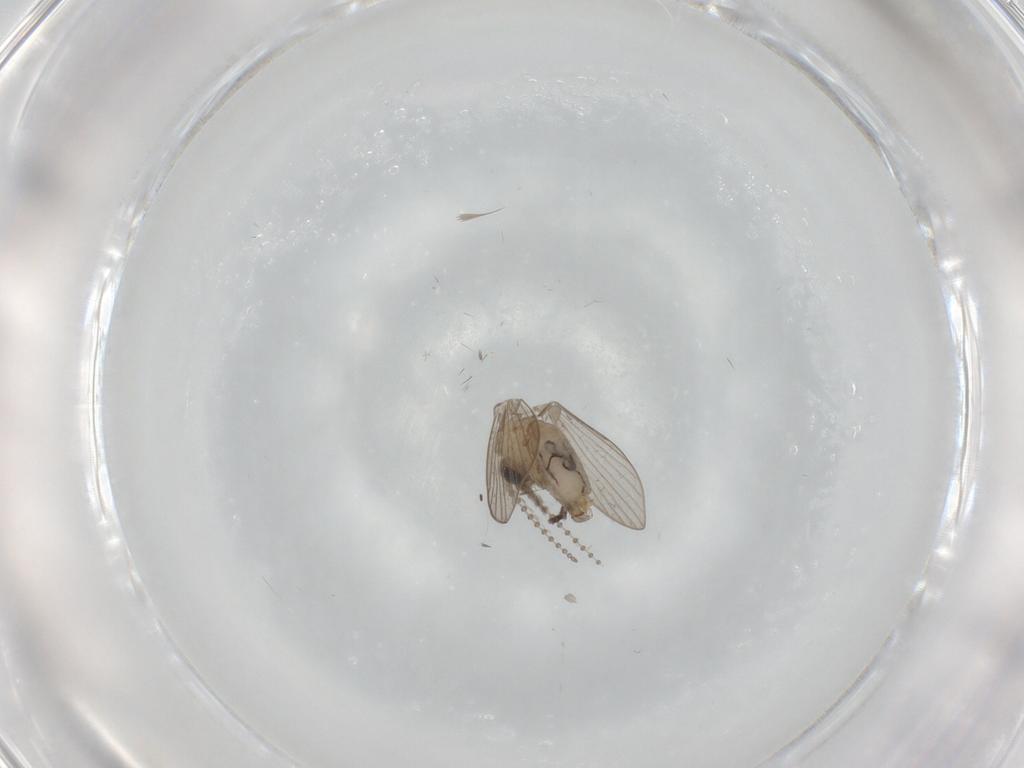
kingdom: Animalia
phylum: Arthropoda
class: Insecta
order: Diptera
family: Psychodidae
